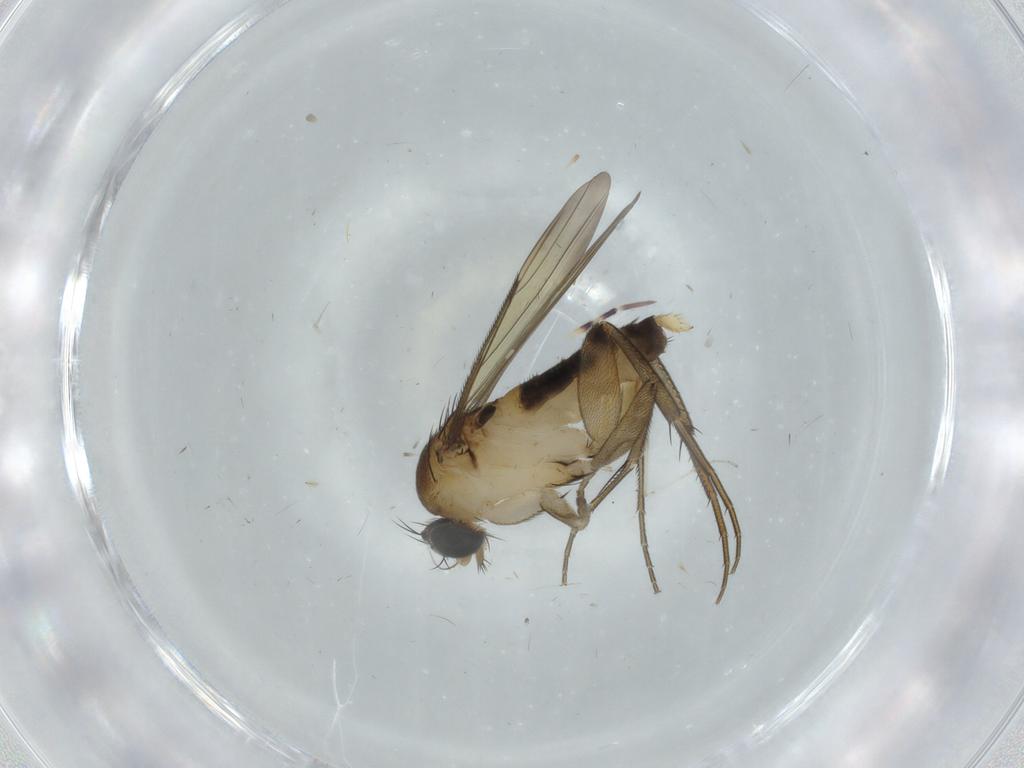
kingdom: Animalia
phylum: Arthropoda
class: Insecta
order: Diptera
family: Phoridae
